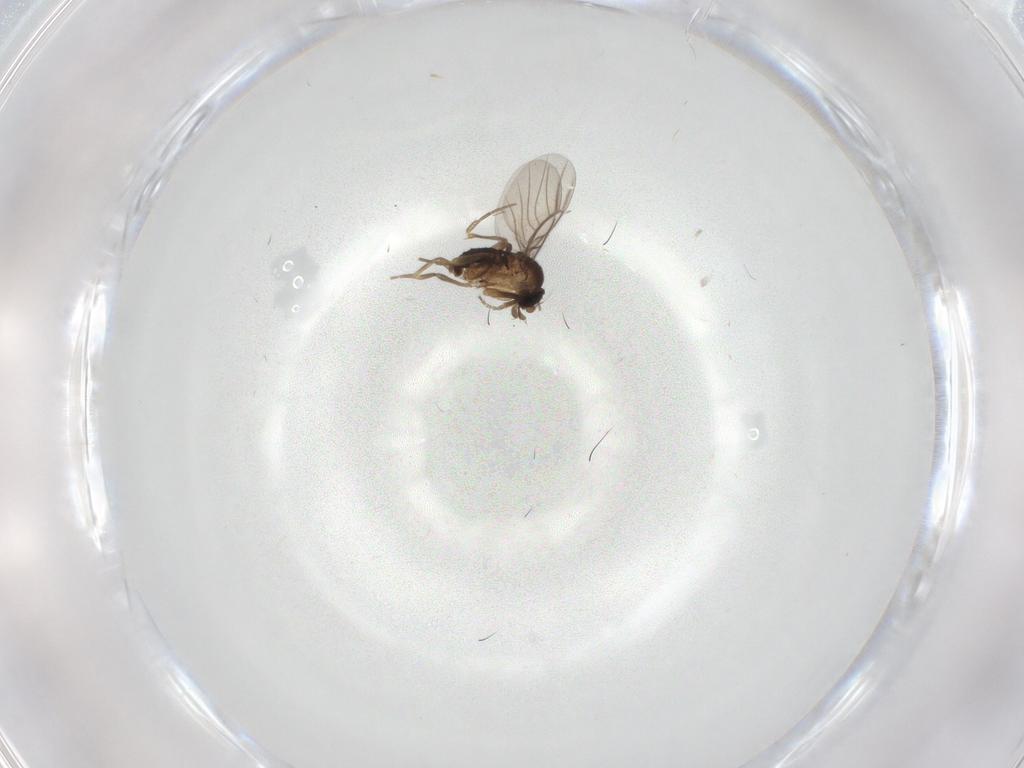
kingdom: Animalia
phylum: Arthropoda
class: Insecta
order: Diptera
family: Phoridae
